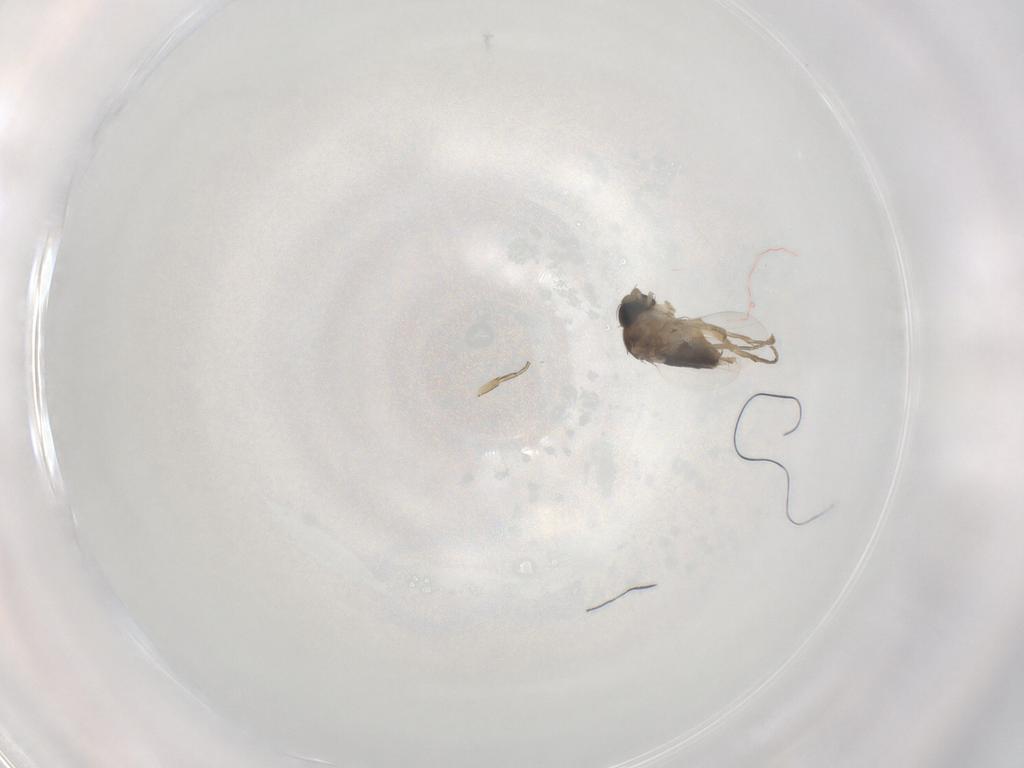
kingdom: Animalia
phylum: Arthropoda
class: Insecta
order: Diptera
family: Phoridae
